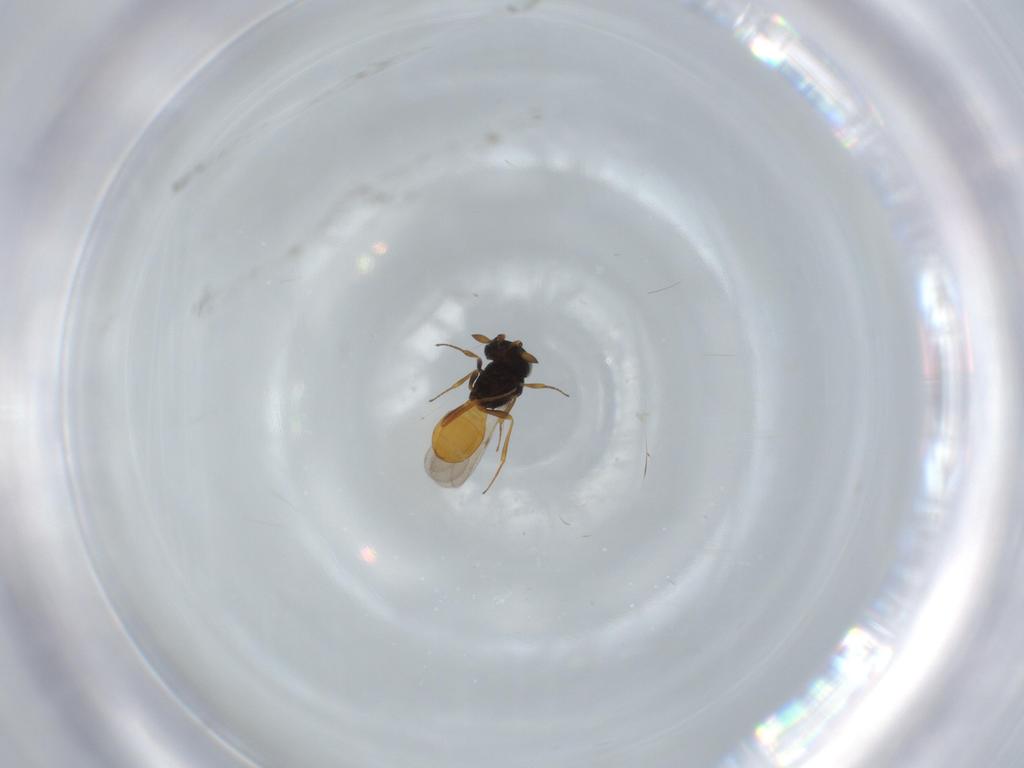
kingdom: Animalia
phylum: Arthropoda
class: Insecta
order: Hymenoptera
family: Scelionidae
